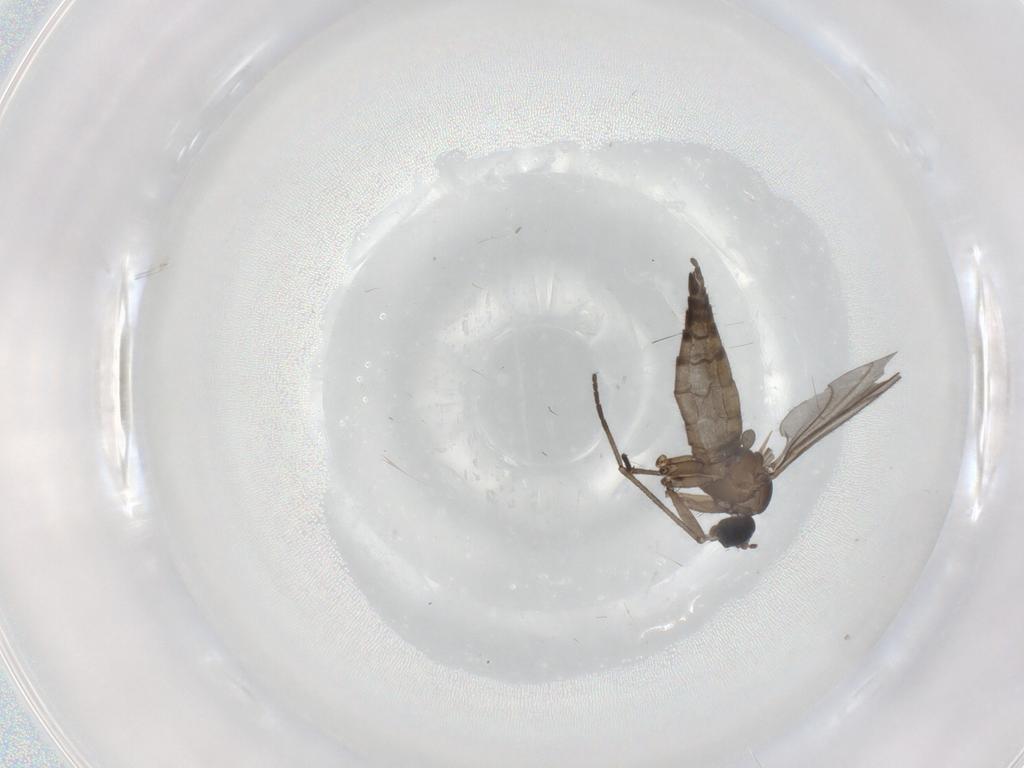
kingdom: Animalia
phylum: Arthropoda
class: Insecta
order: Diptera
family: Sciaridae
